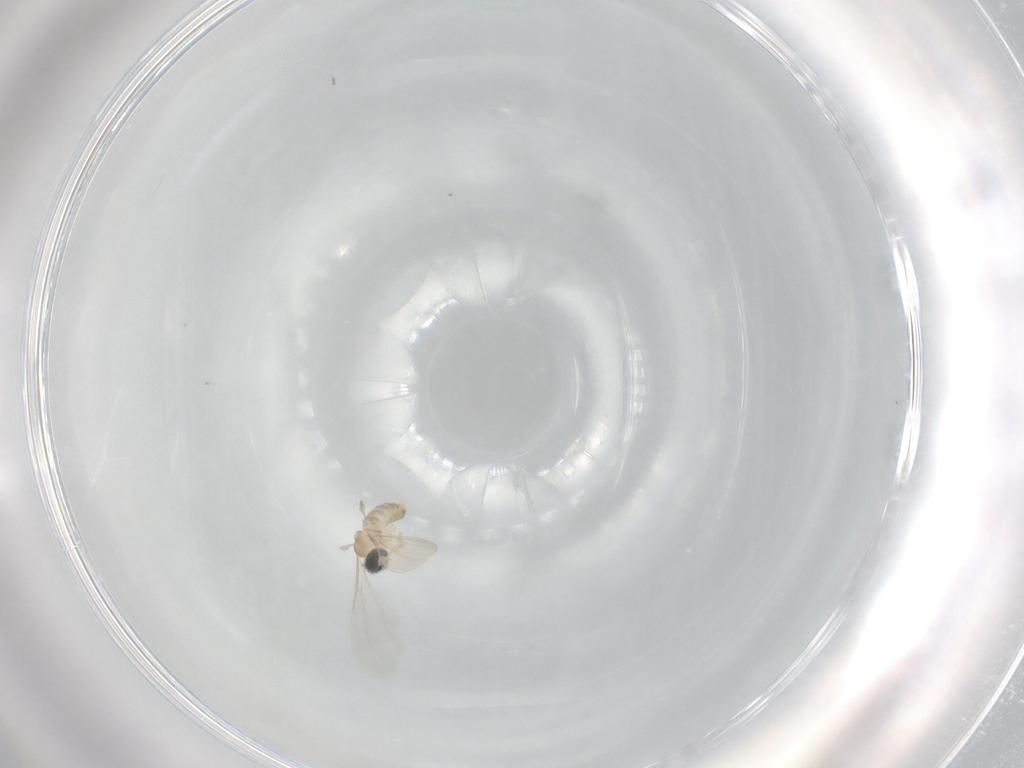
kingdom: Animalia
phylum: Arthropoda
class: Insecta
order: Diptera
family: Cecidomyiidae
